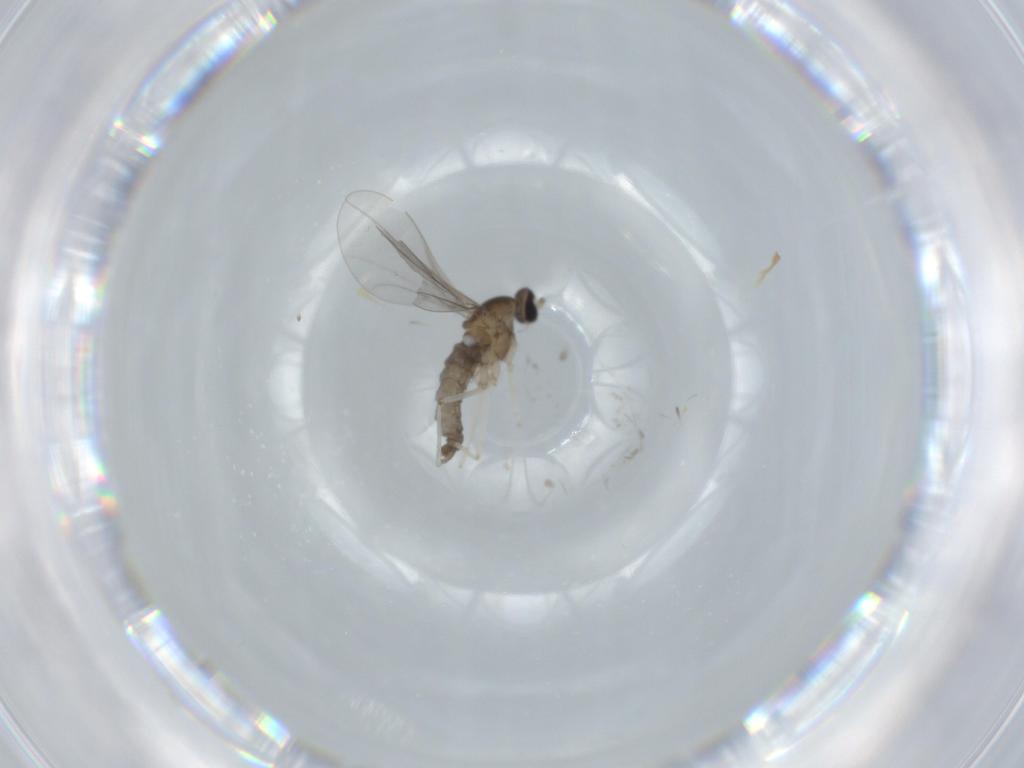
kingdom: Animalia
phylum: Arthropoda
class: Insecta
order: Diptera
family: Cecidomyiidae
